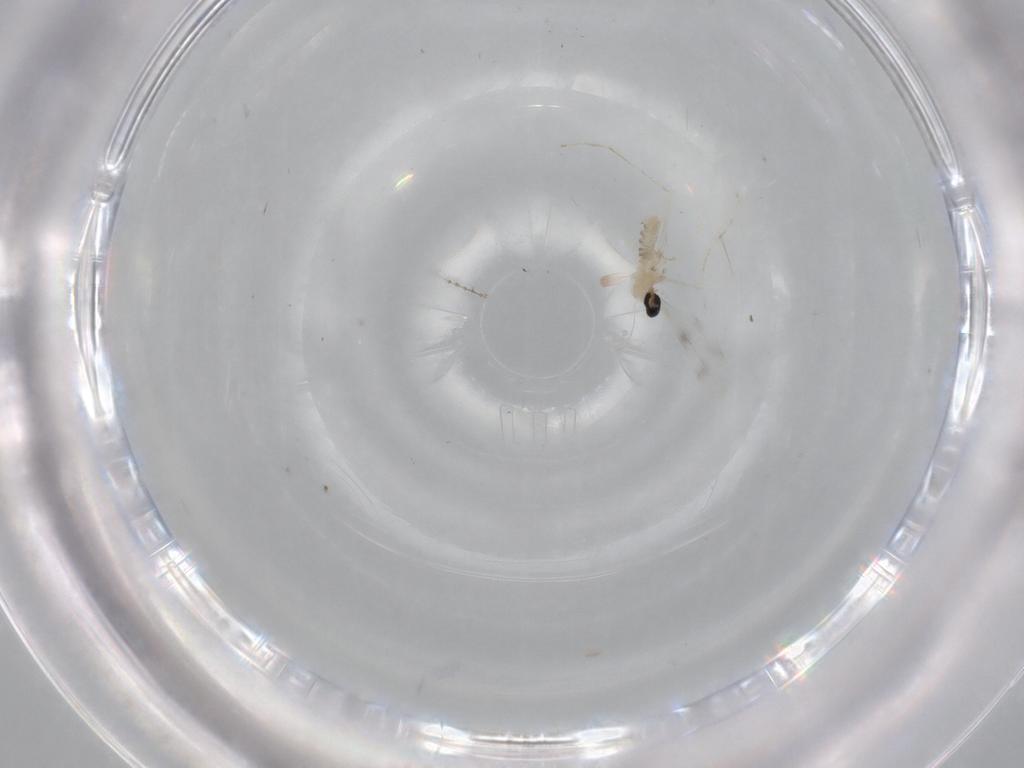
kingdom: Animalia
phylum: Arthropoda
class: Insecta
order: Diptera
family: Cecidomyiidae
